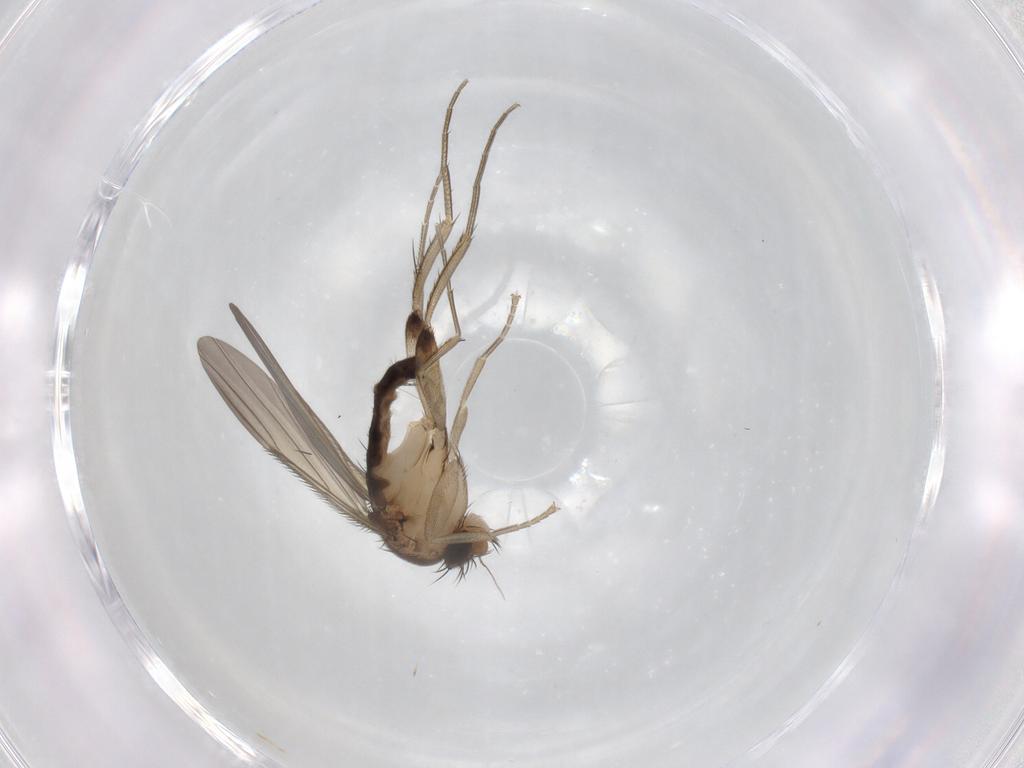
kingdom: Animalia
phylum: Arthropoda
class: Insecta
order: Diptera
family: Phoridae
